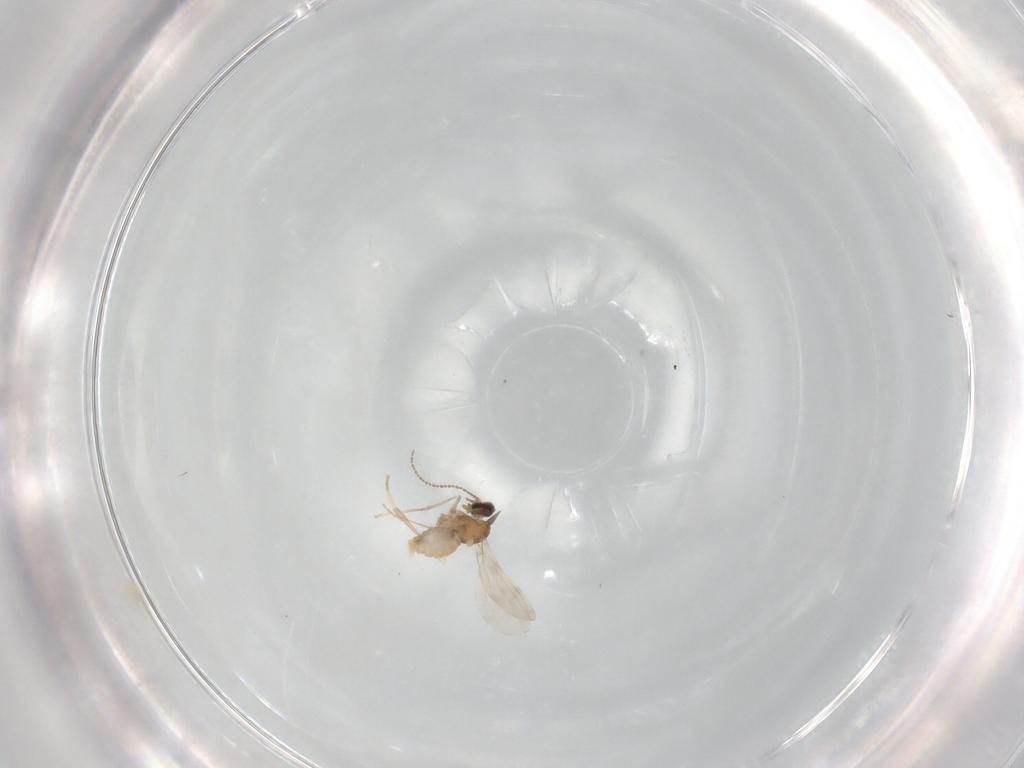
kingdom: Animalia
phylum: Arthropoda
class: Insecta
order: Diptera
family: Cecidomyiidae
